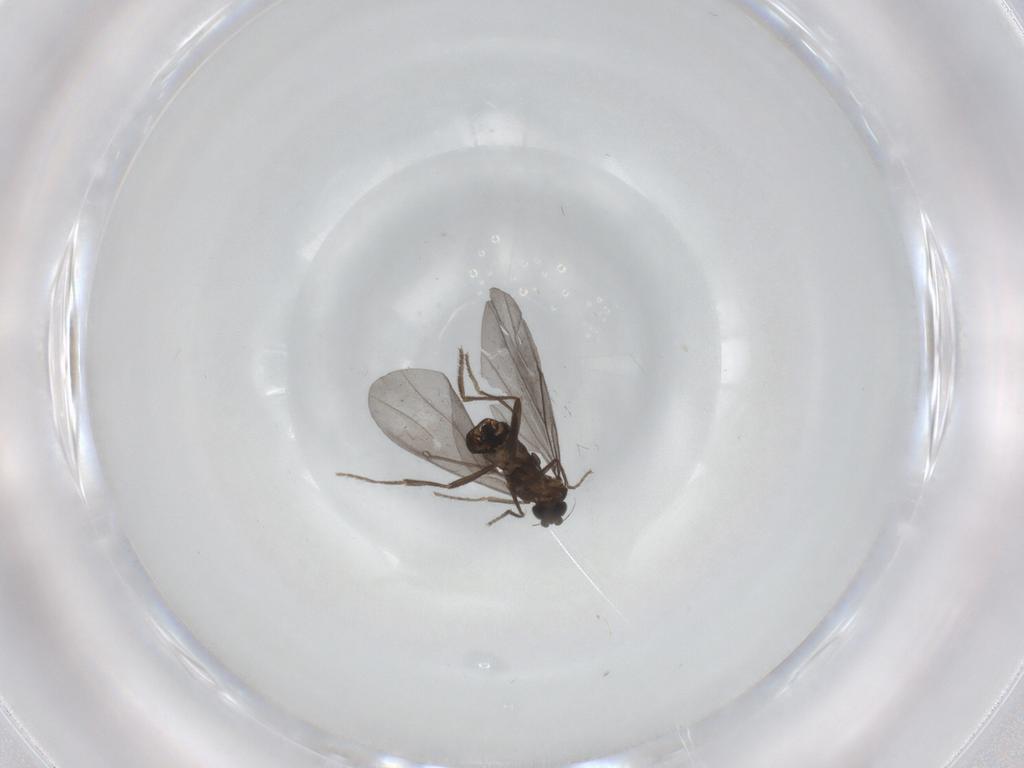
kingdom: Animalia
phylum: Arthropoda
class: Insecta
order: Diptera
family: Phoridae
